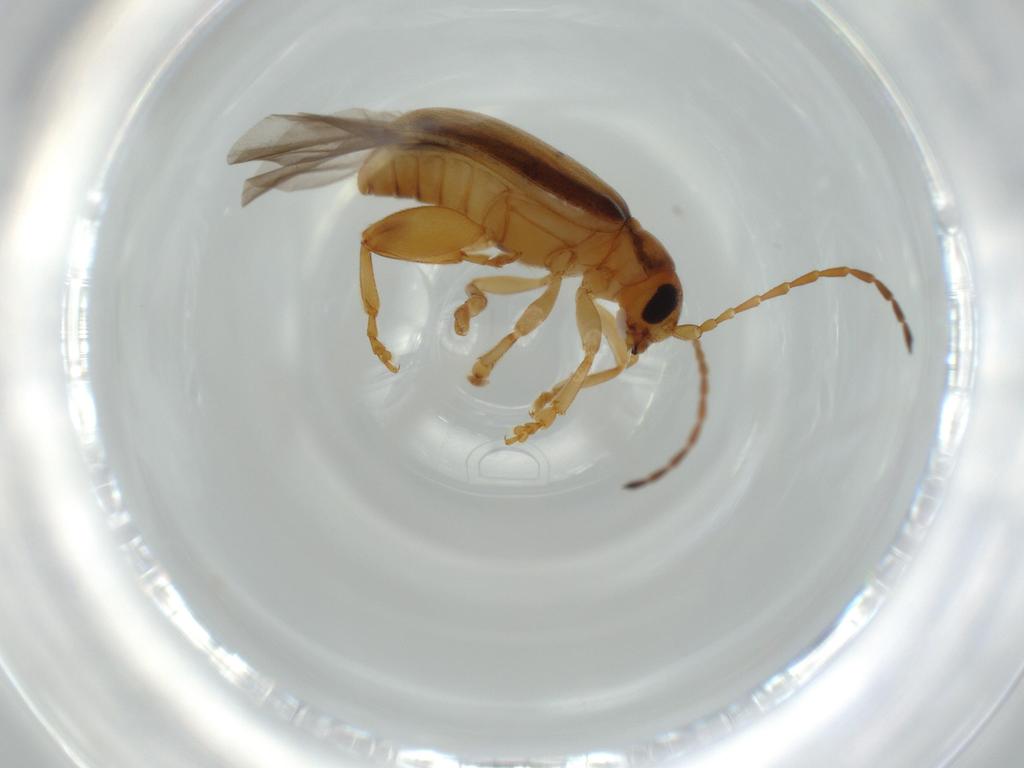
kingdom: Animalia
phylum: Arthropoda
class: Insecta
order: Coleoptera
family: Chrysomelidae
